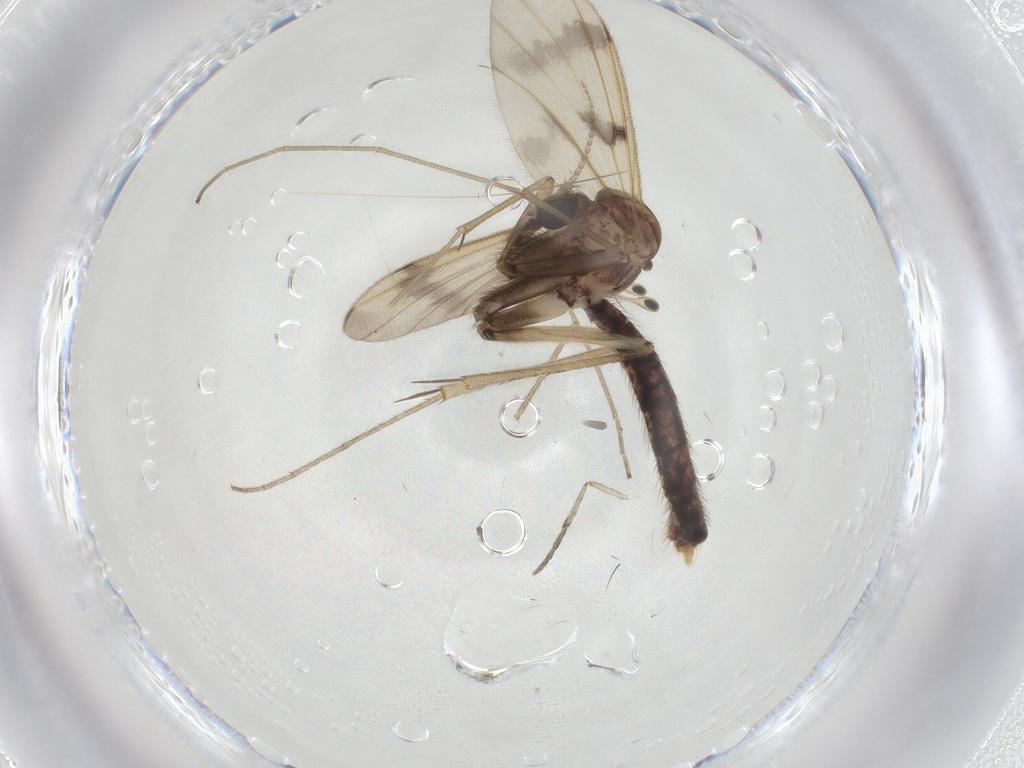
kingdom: Animalia
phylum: Arthropoda
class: Insecta
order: Diptera
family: Mycetophilidae
